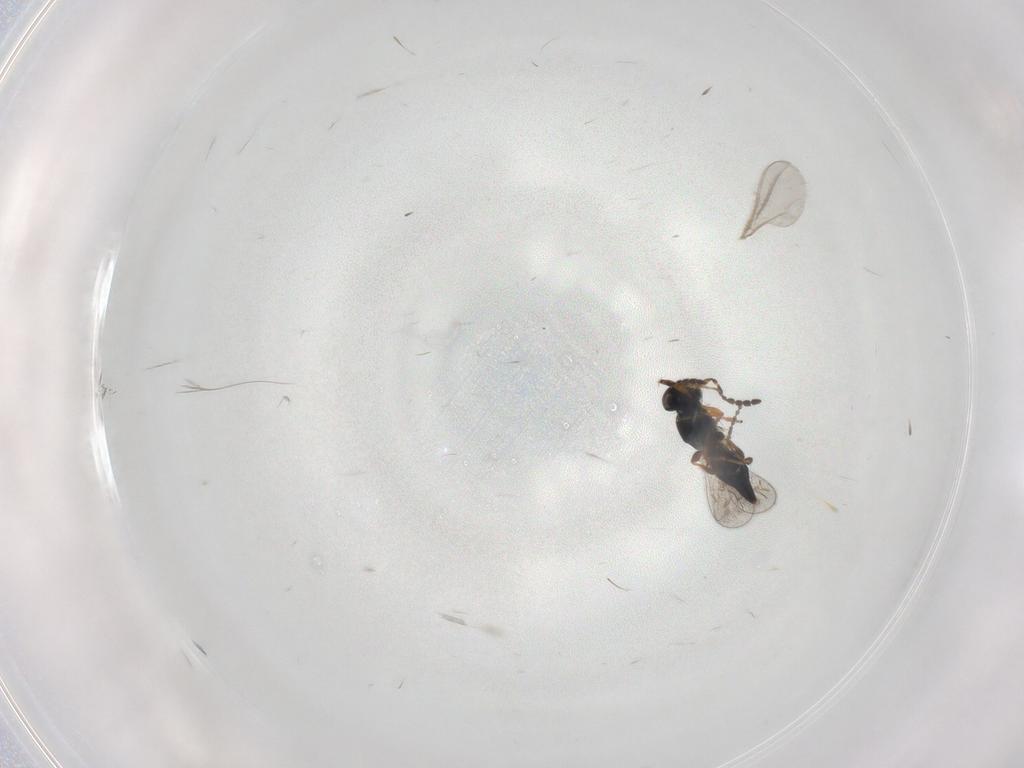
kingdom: Animalia
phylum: Arthropoda
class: Insecta
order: Hymenoptera
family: Platygastridae
